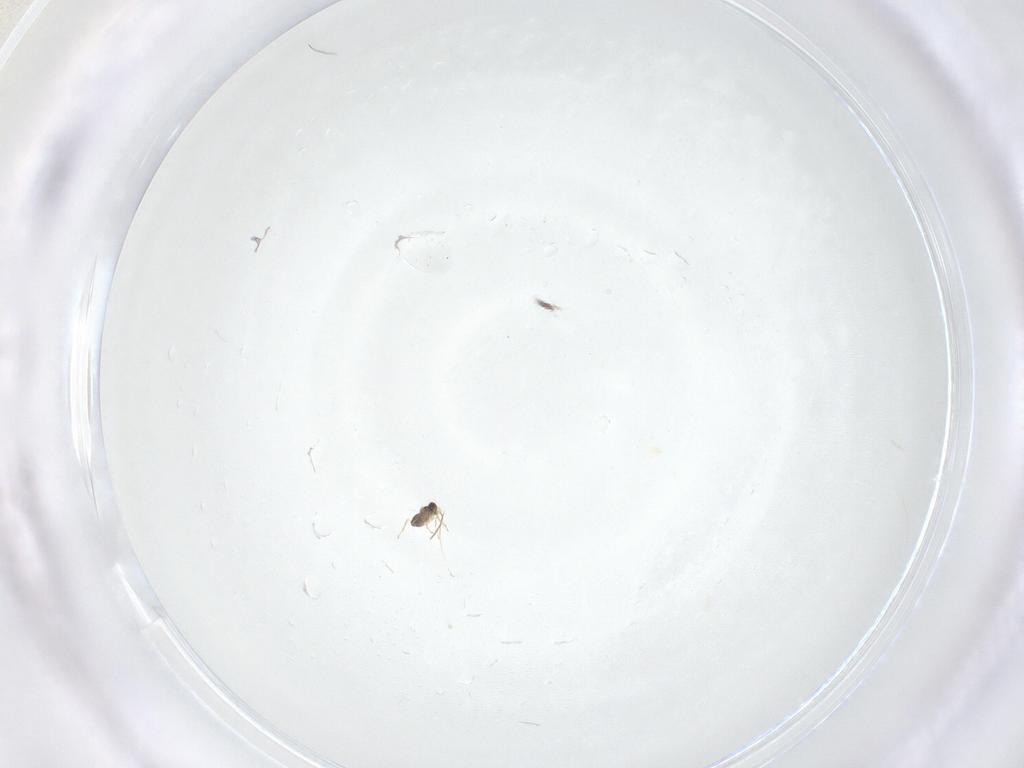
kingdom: Animalia
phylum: Arthropoda
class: Insecta
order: Hymenoptera
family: Mymaridae
